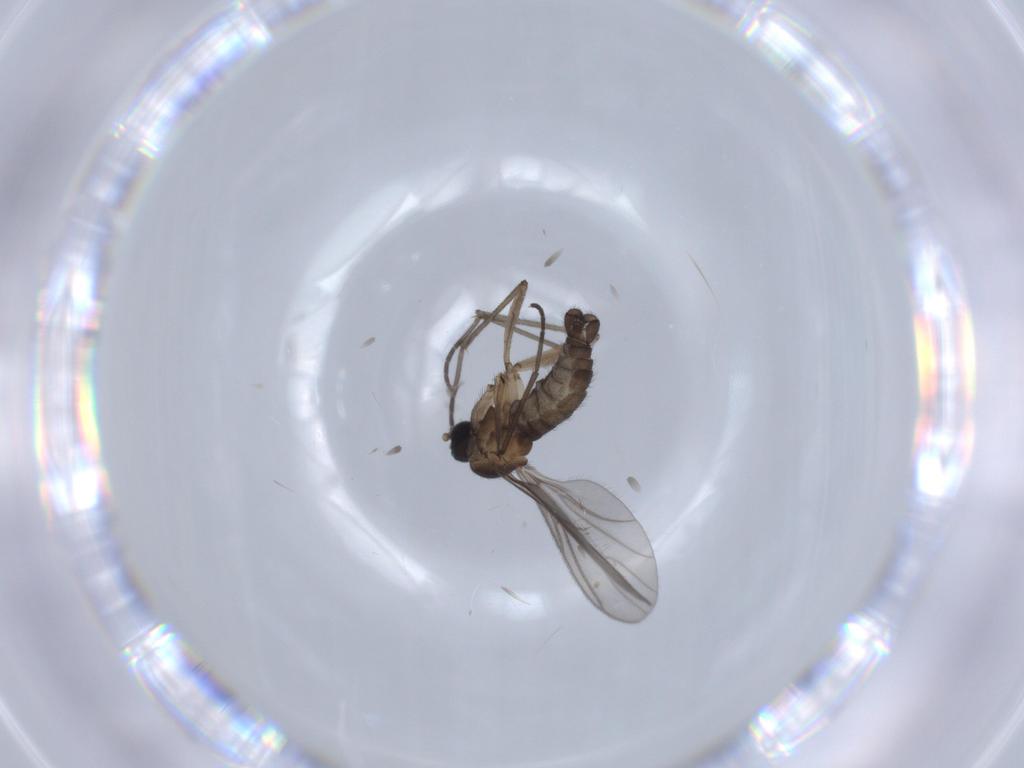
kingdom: Animalia
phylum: Arthropoda
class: Insecta
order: Diptera
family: Sciaridae
